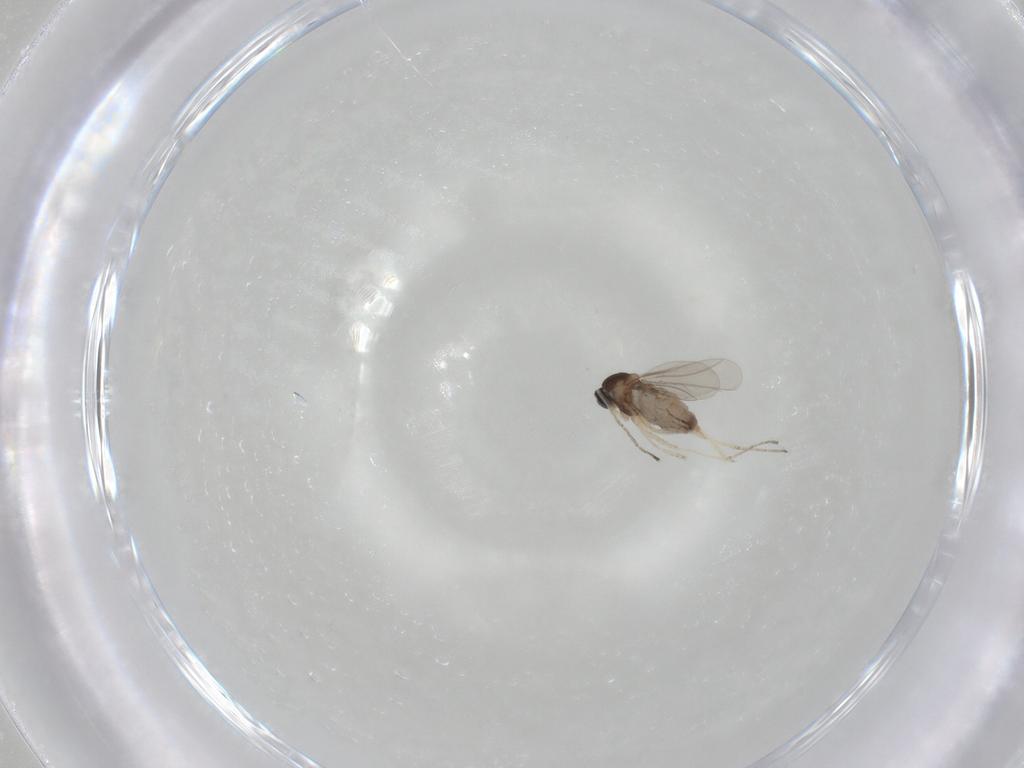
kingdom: Animalia
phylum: Arthropoda
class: Insecta
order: Diptera
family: Cecidomyiidae
